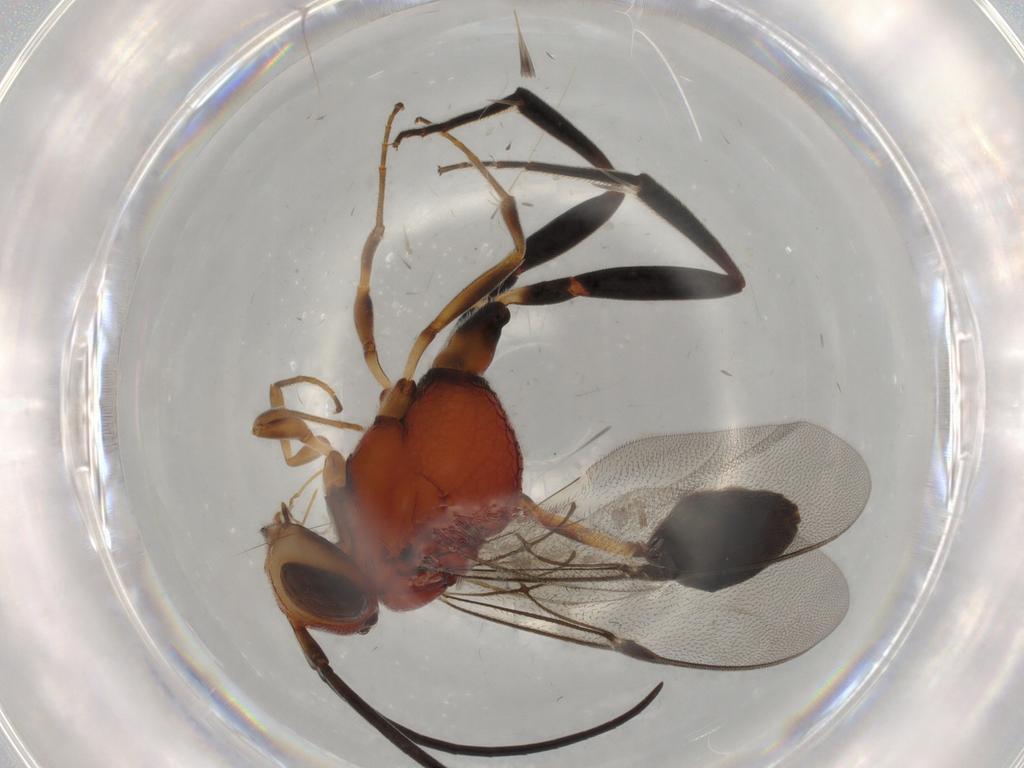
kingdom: Animalia
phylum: Arthropoda
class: Insecta
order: Hymenoptera
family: Evaniidae
